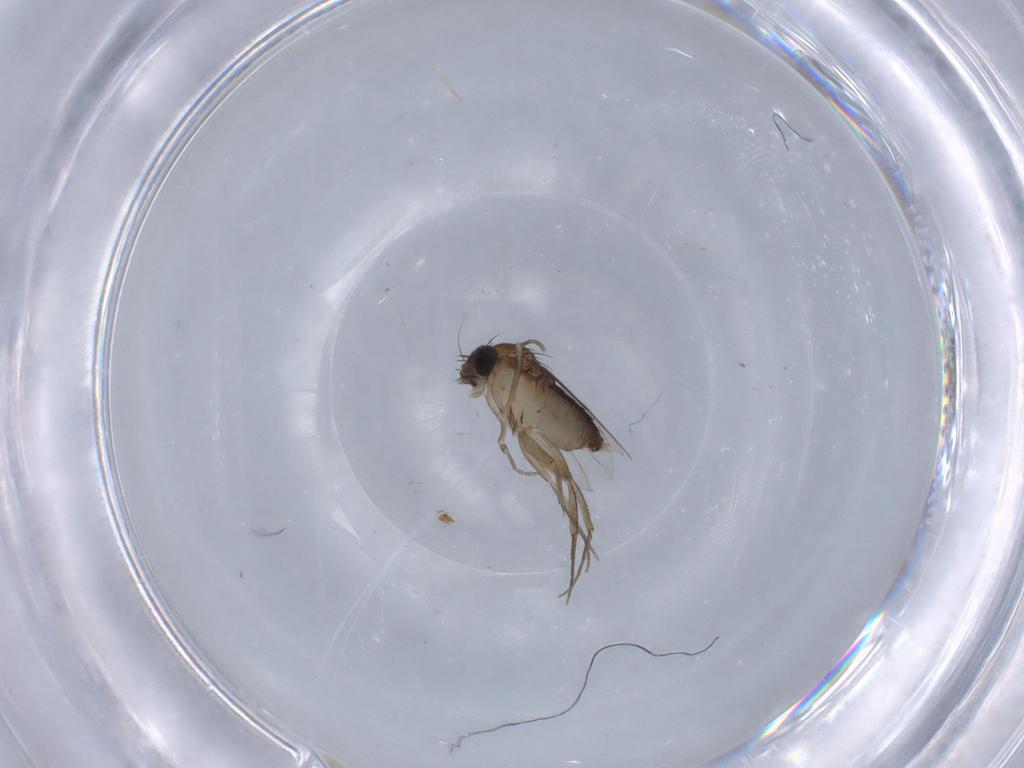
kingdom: Animalia
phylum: Arthropoda
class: Insecta
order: Diptera
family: Phoridae
